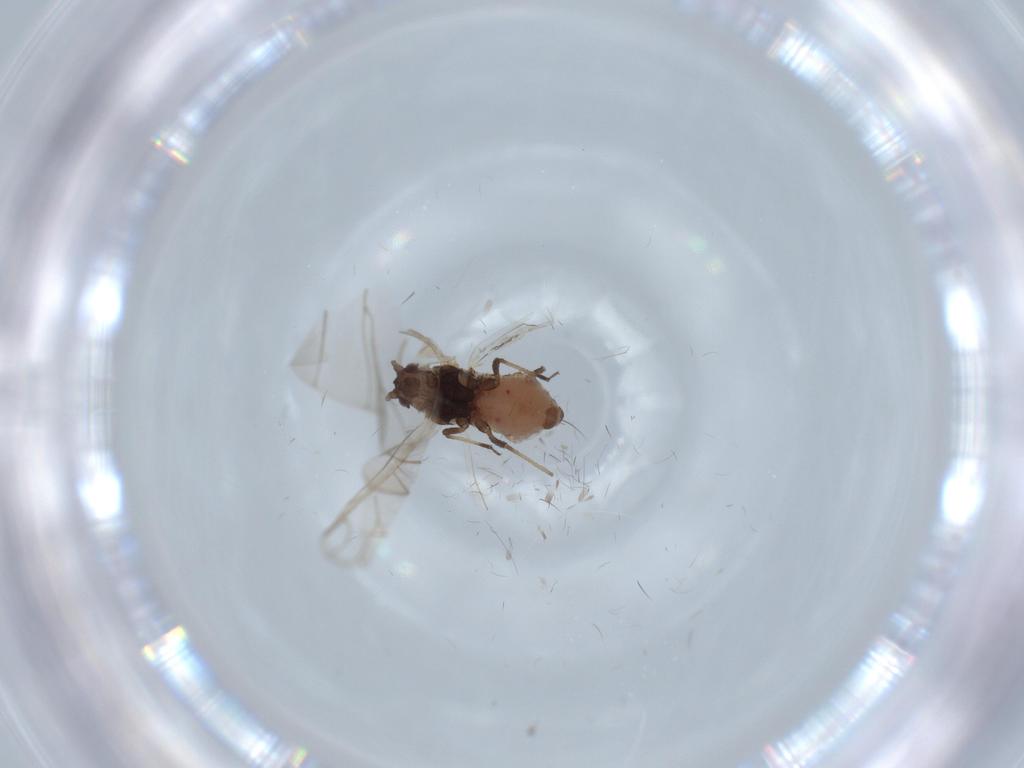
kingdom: Animalia
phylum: Arthropoda
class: Insecta
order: Hemiptera
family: Aphididae
